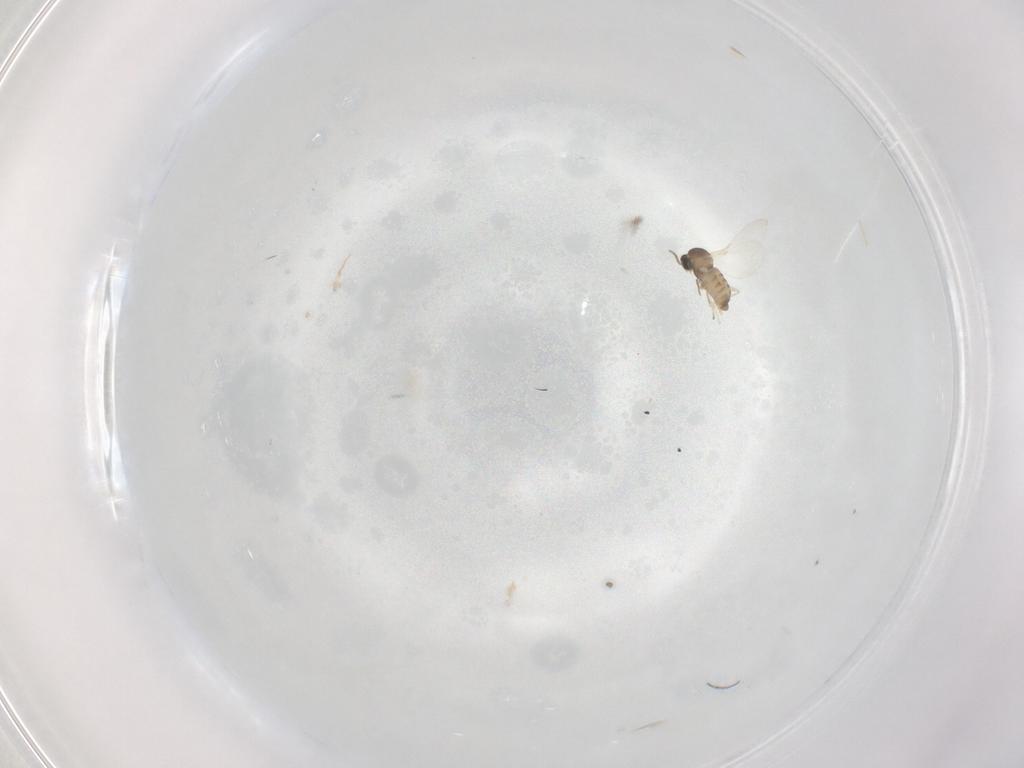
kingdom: Animalia
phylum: Arthropoda
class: Insecta
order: Diptera
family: Cecidomyiidae
